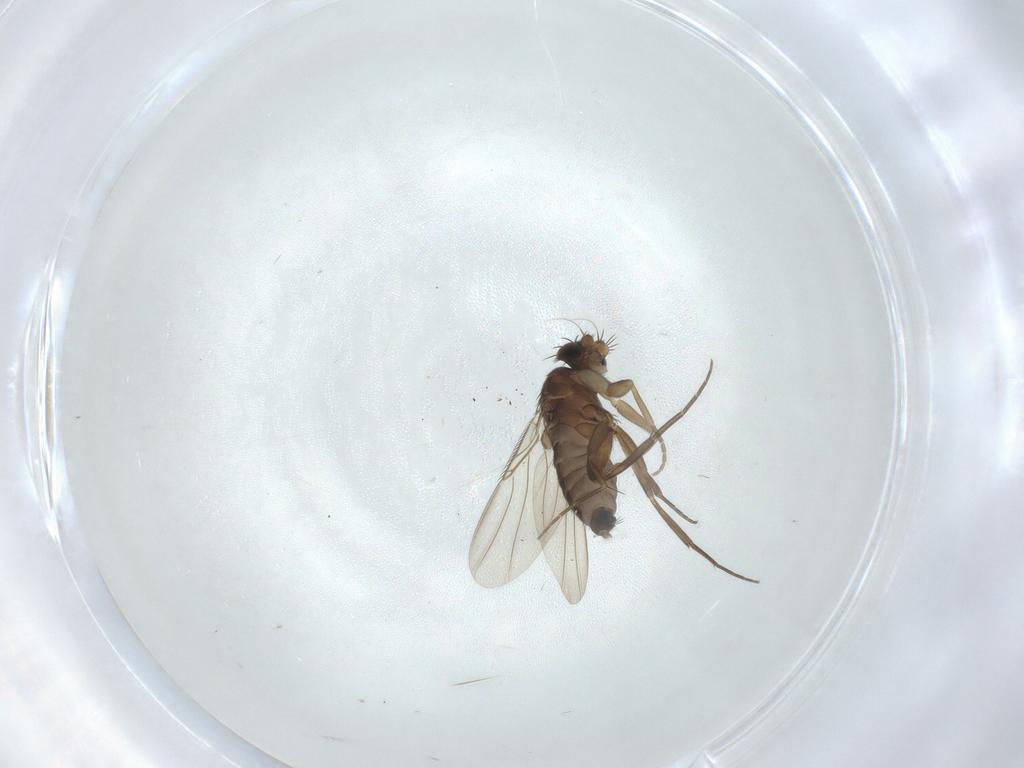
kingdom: Animalia
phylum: Arthropoda
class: Insecta
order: Diptera
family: Phoridae
